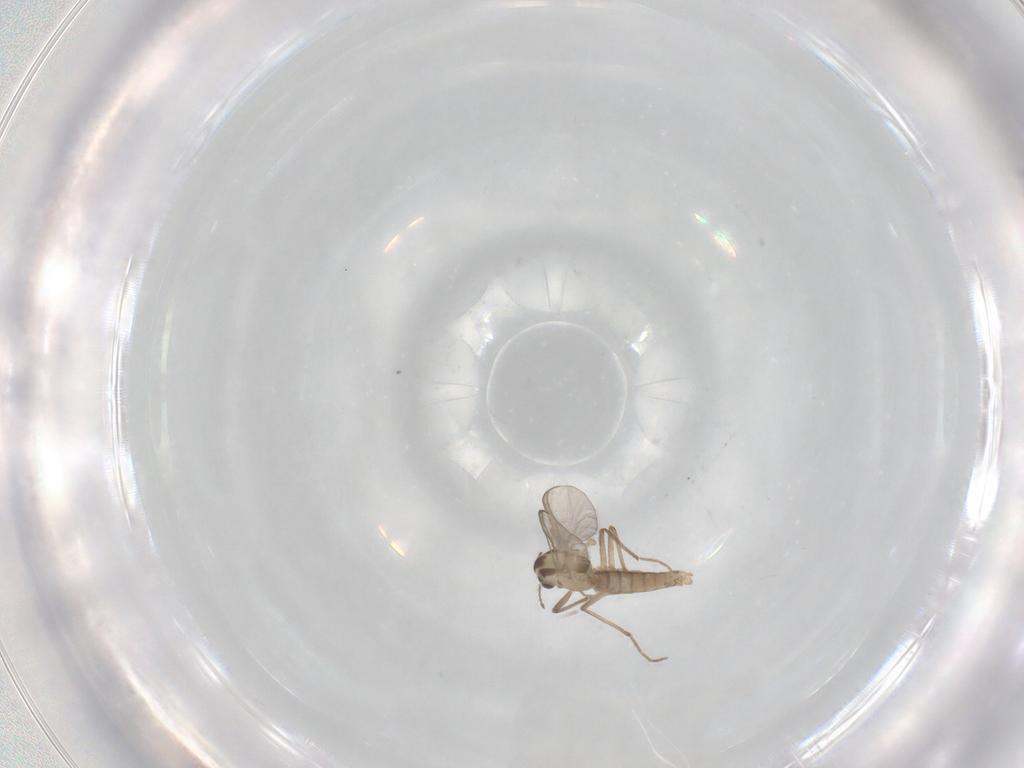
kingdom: Animalia
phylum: Arthropoda
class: Insecta
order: Diptera
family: Chironomidae
